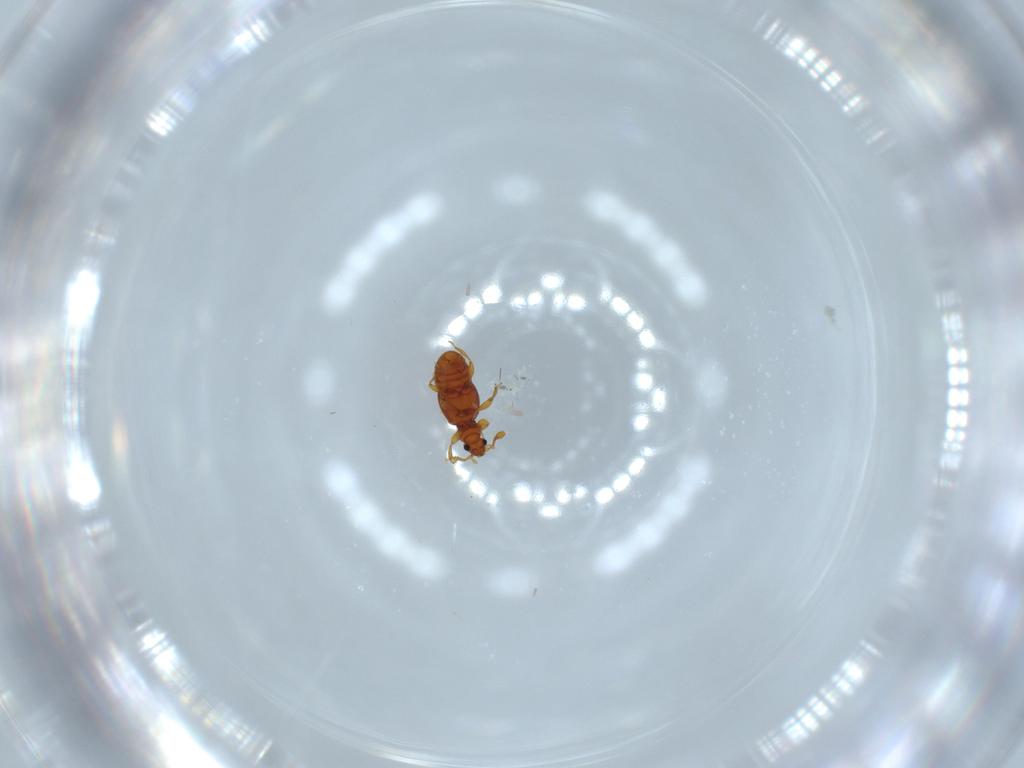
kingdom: Animalia
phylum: Arthropoda
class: Insecta
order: Coleoptera
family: Staphylinidae
